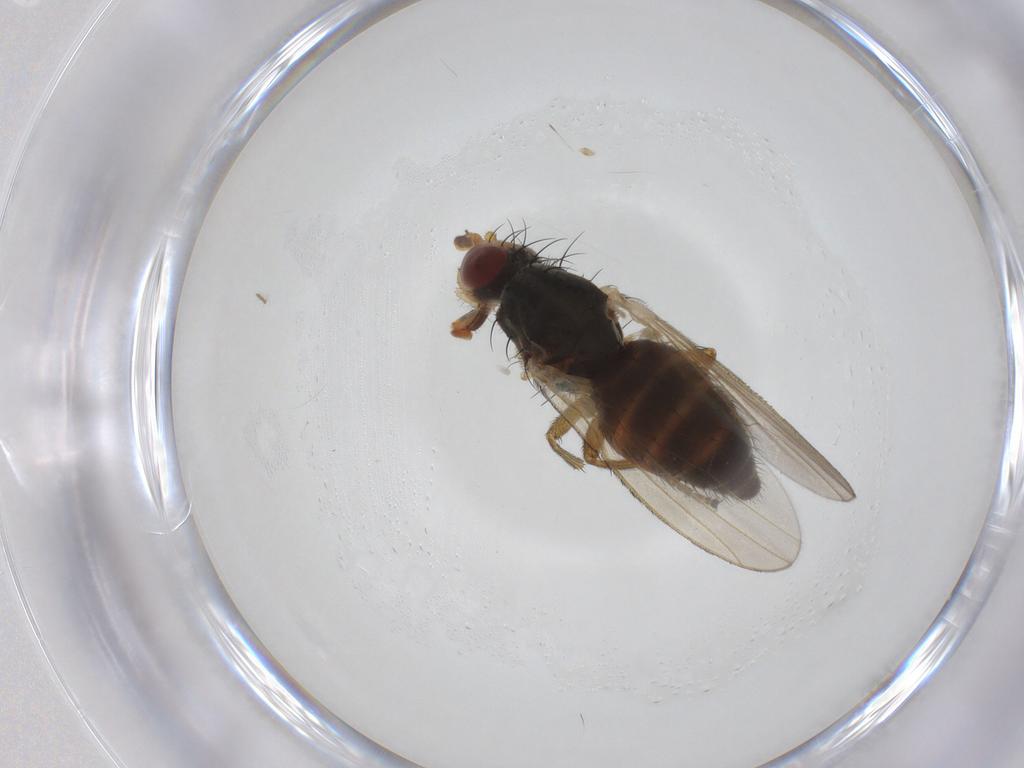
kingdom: Animalia
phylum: Arthropoda
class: Insecta
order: Diptera
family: Phoridae
